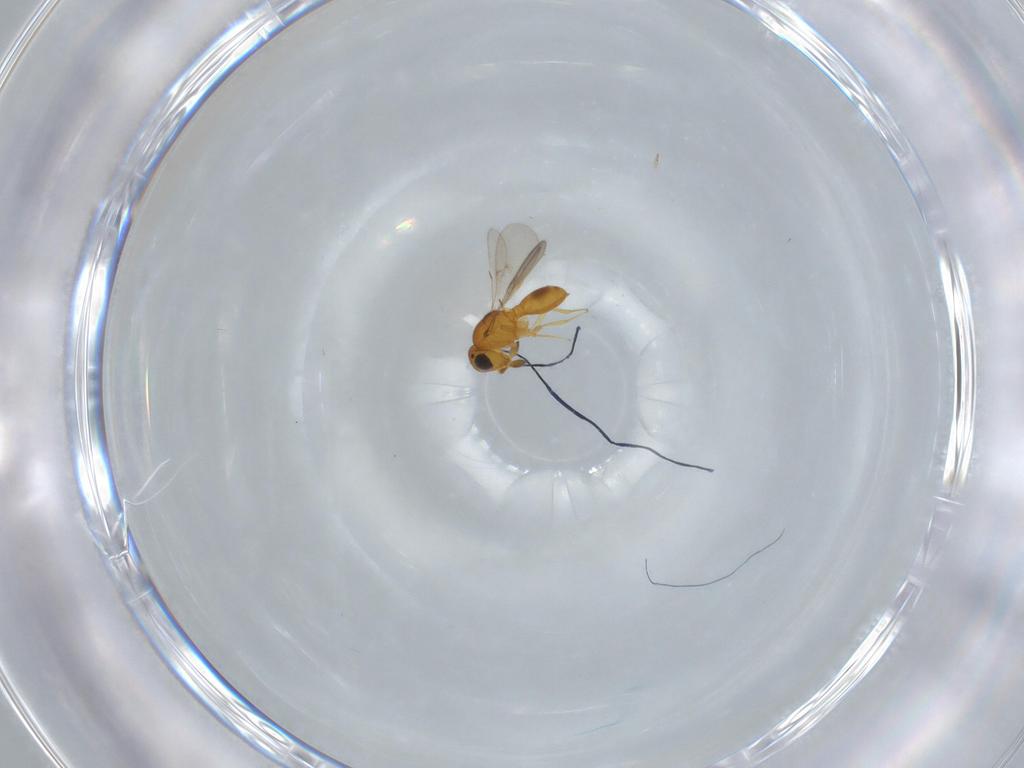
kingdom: Animalia
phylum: Arthropoda
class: Insecta
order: Hymenoptera
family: Scelionidae
